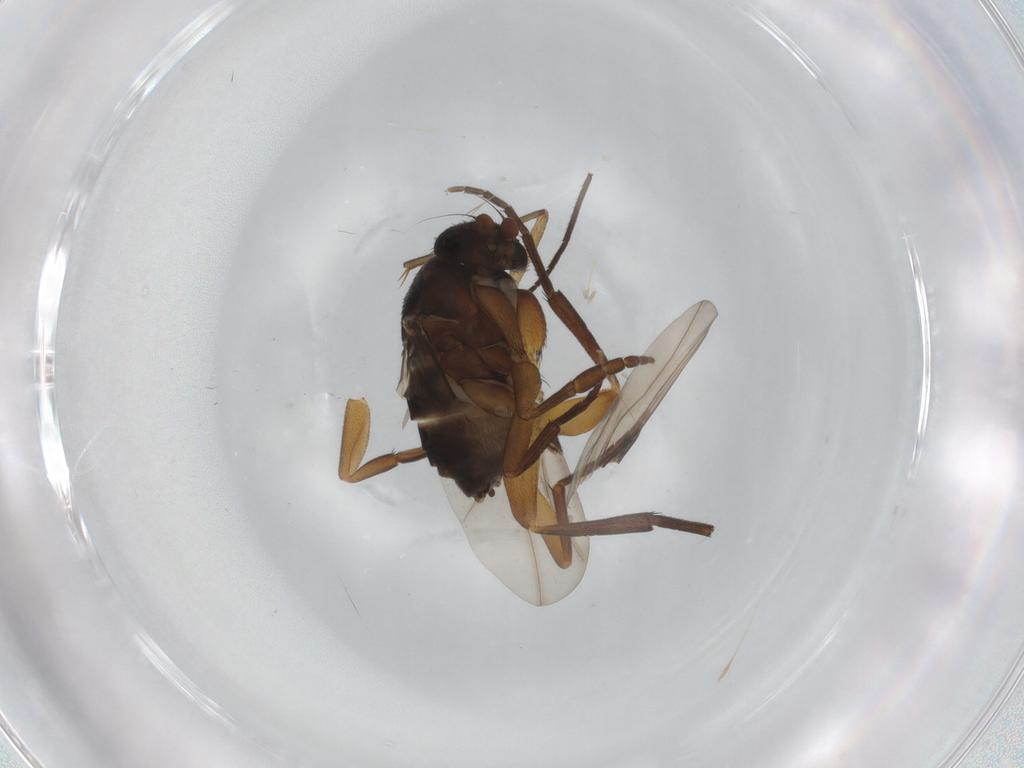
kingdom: Animalia
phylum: Arthropoda
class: Insecta
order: Diptera
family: Phoridae
